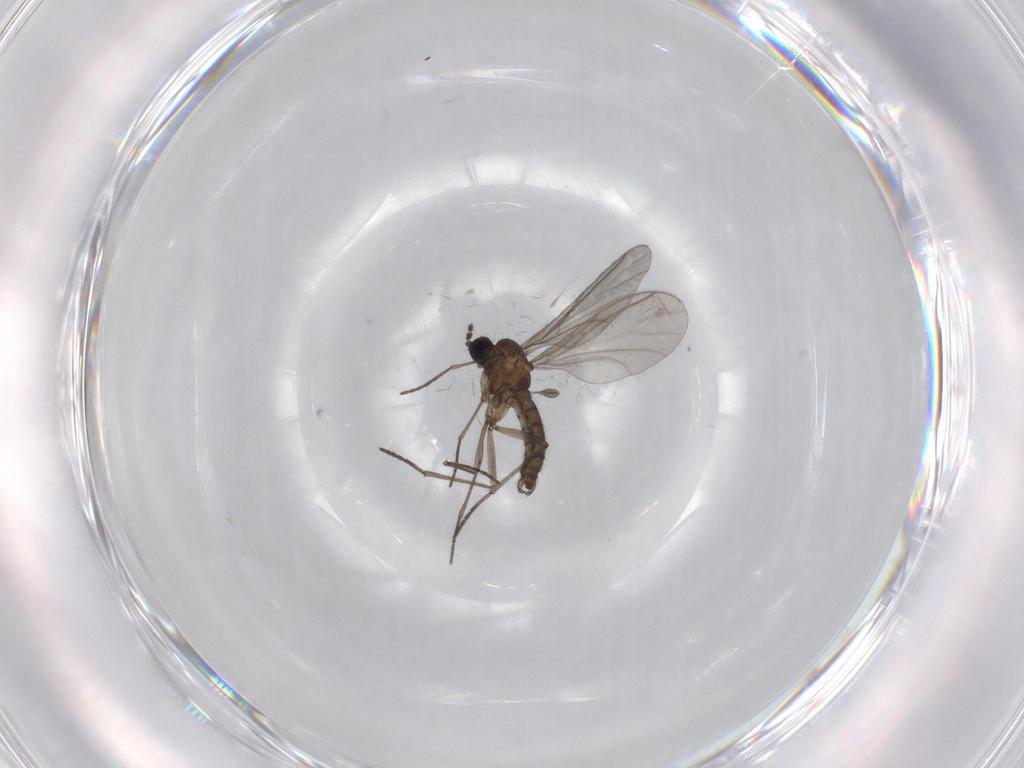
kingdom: Animalia
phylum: Arthropoda
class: Insecta
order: Diptera
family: Sciaridae
